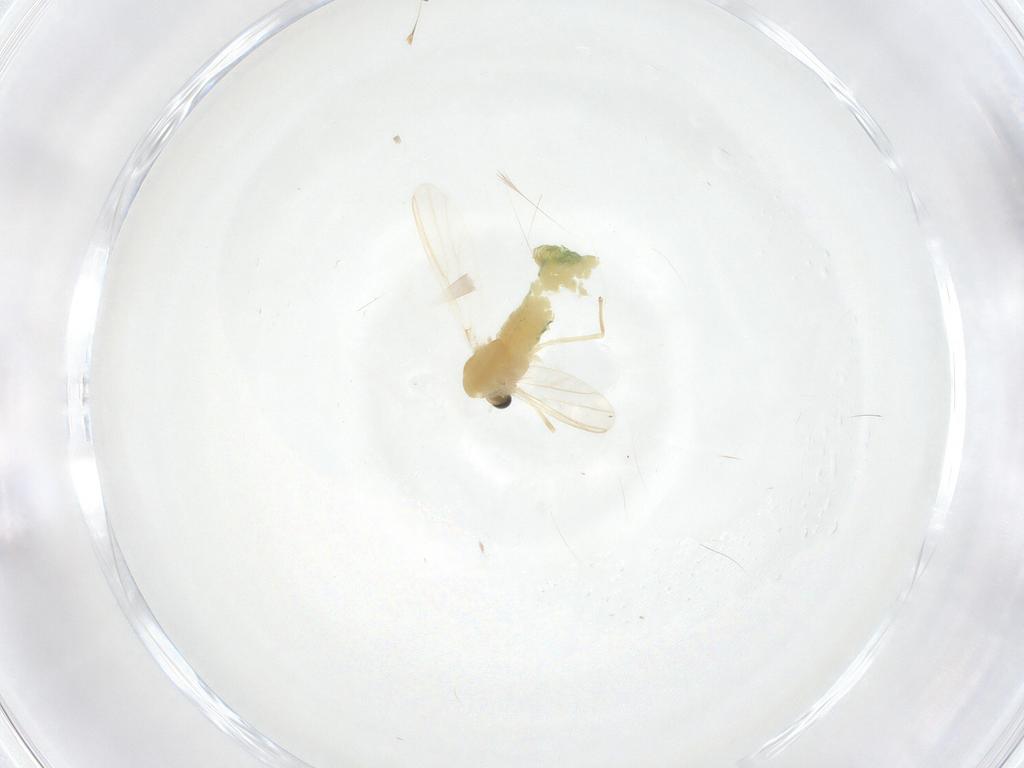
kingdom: Animalia
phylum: Arthropoda
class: Insecta
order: Diptera
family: Chironomidae
